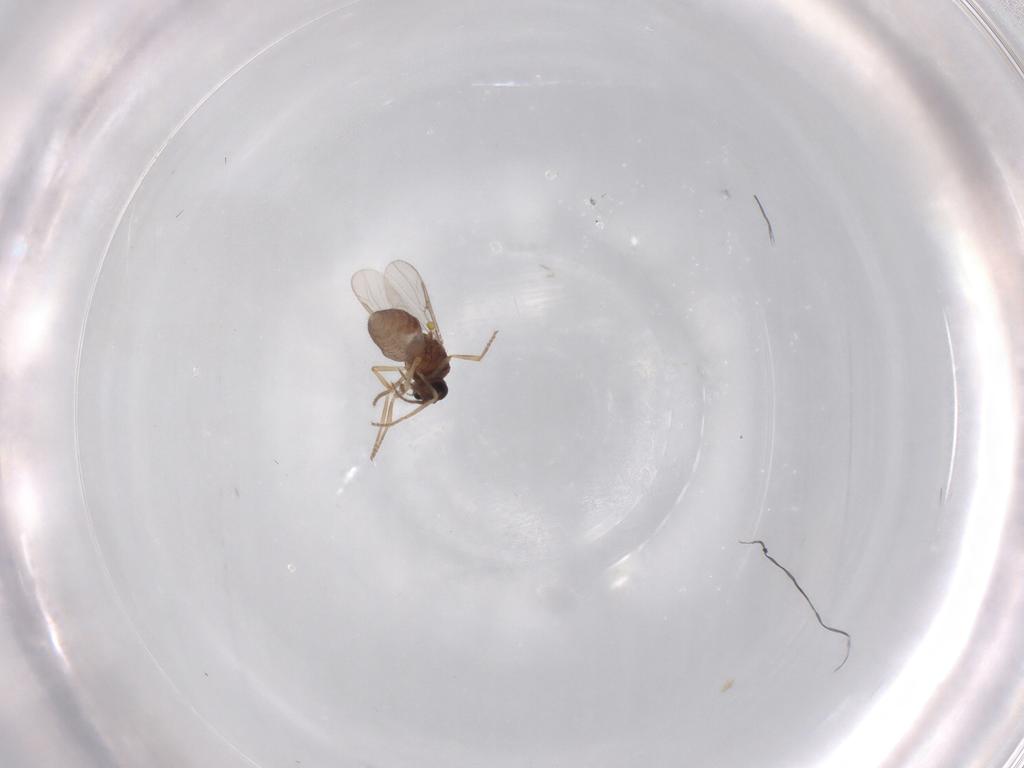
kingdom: Animalia
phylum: Arthropoda
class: Insecta
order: Diptera
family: Ceratopogonidae
